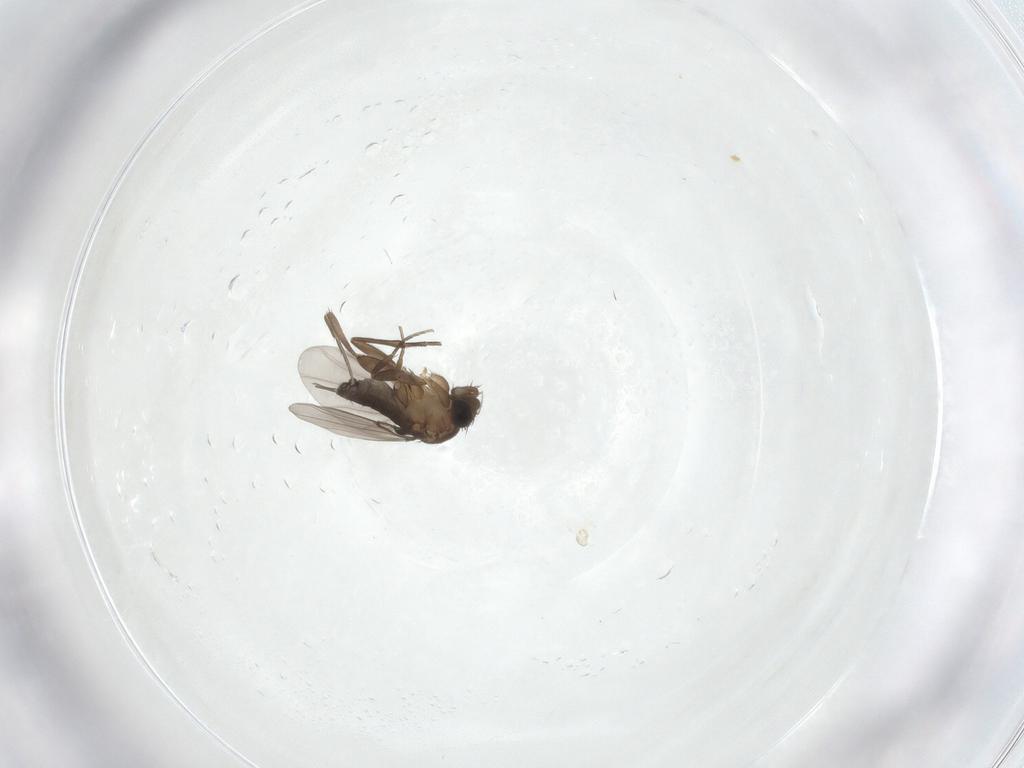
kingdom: Animalia
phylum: Arthropoda
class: Insecta
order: Diptera
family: Phoridae
